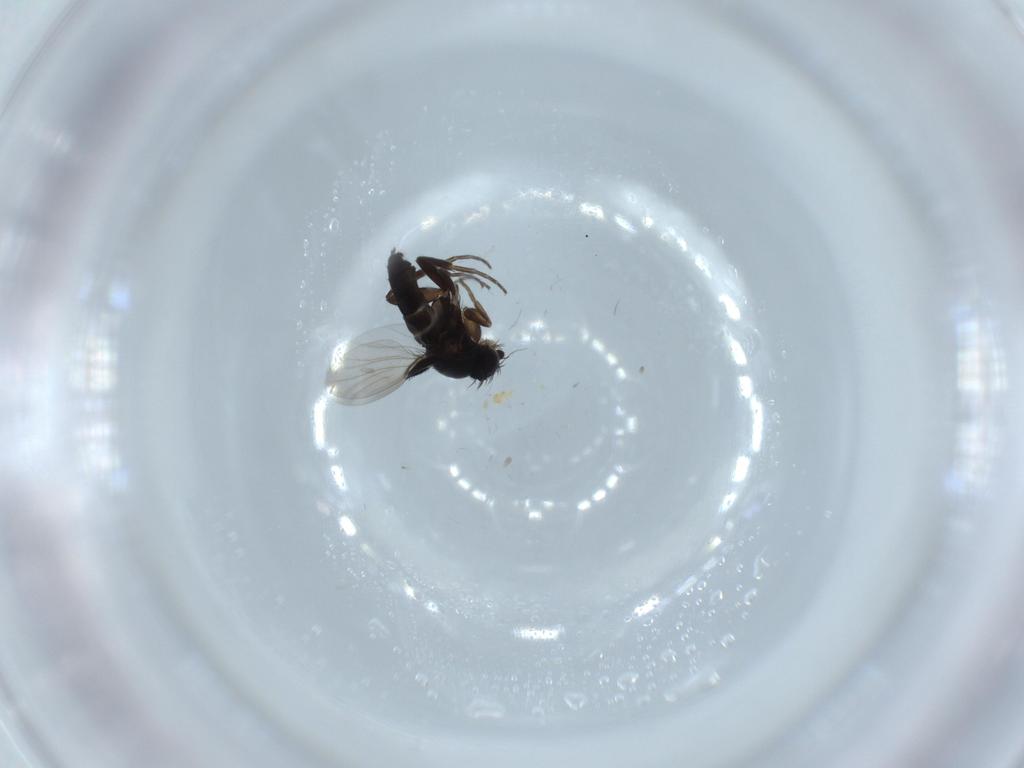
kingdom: Animalia
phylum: Arthropoda
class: Insecta
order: Diptera
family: Phoridae
